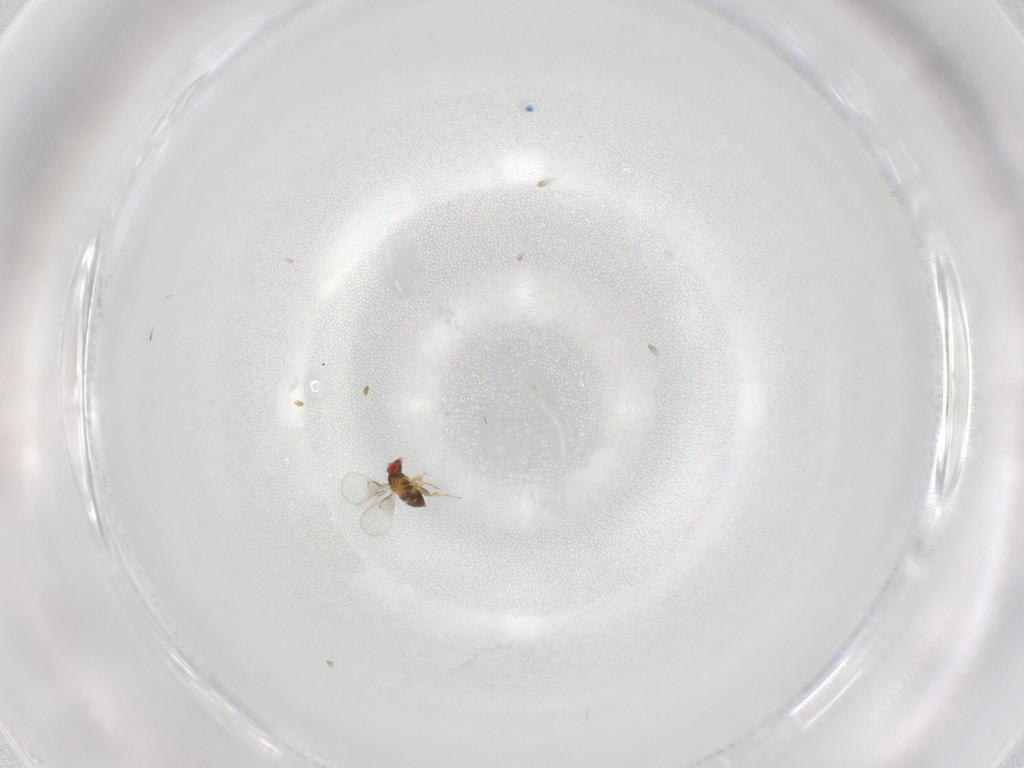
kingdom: Animalia
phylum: Arthropoda
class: Insecta
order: Hymenoptera
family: Trichogrammatidae
